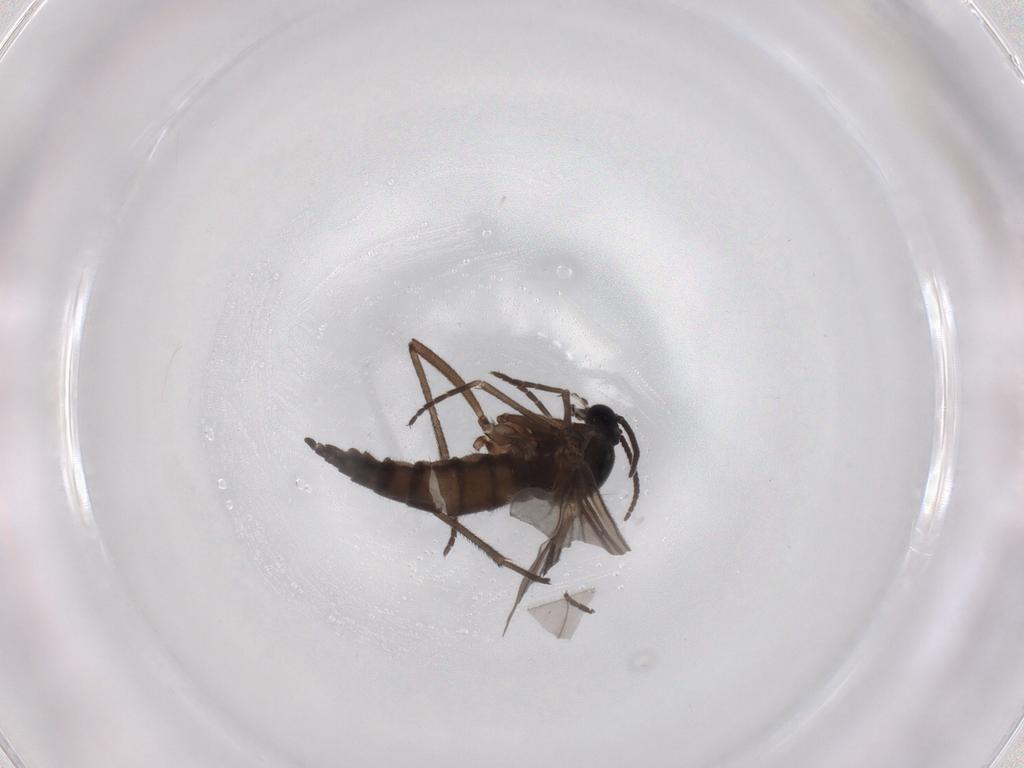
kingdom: Animalia
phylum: Arthropoda
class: Insecta
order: Diptera
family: Sciaridae
